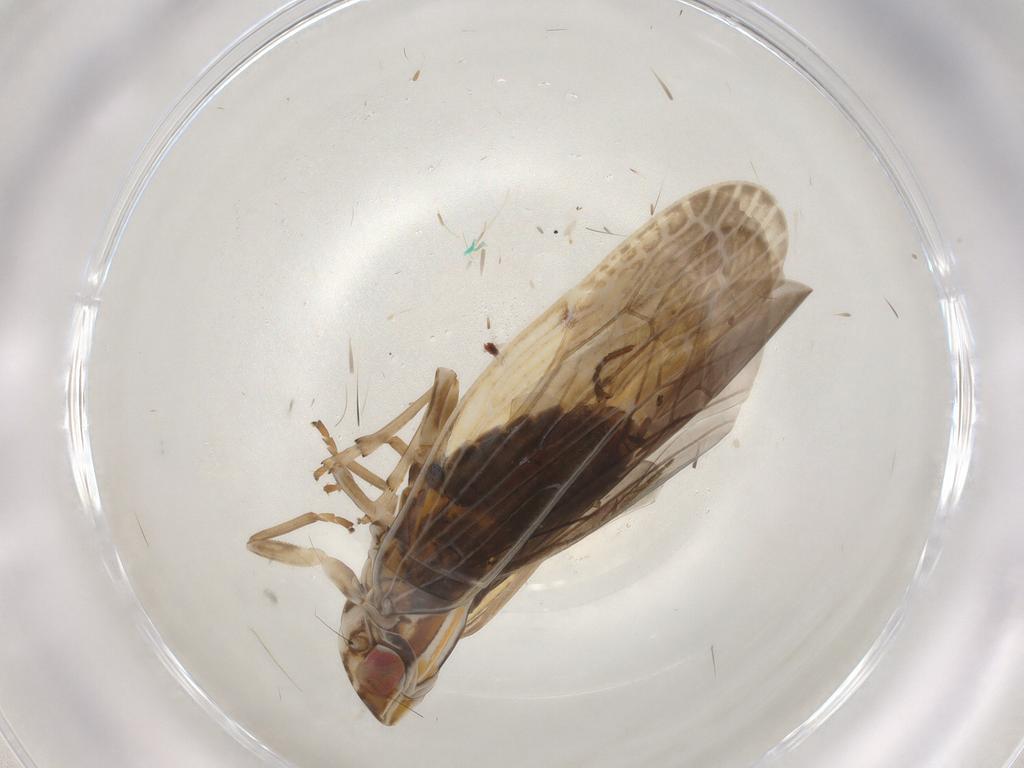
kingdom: Animalia
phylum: Arthropoda
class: Insecta
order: Hemiptera
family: Achilidae
